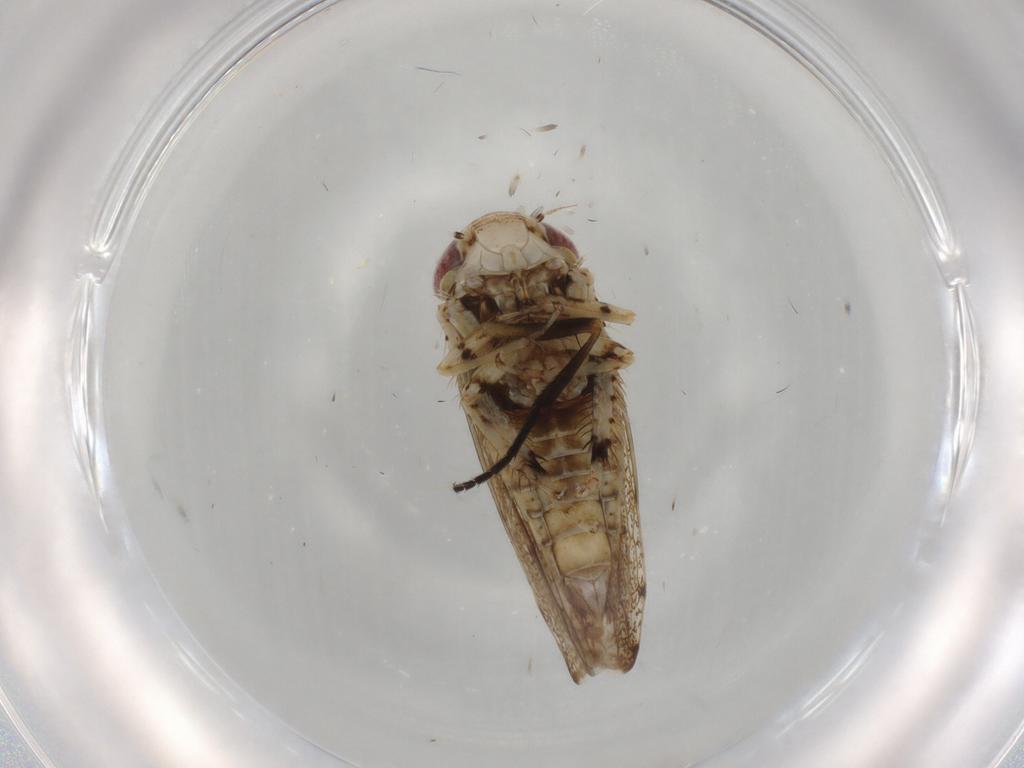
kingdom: Animalia
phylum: Arthropoda
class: Insecta
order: Hemiptera
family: Cicadellidae
